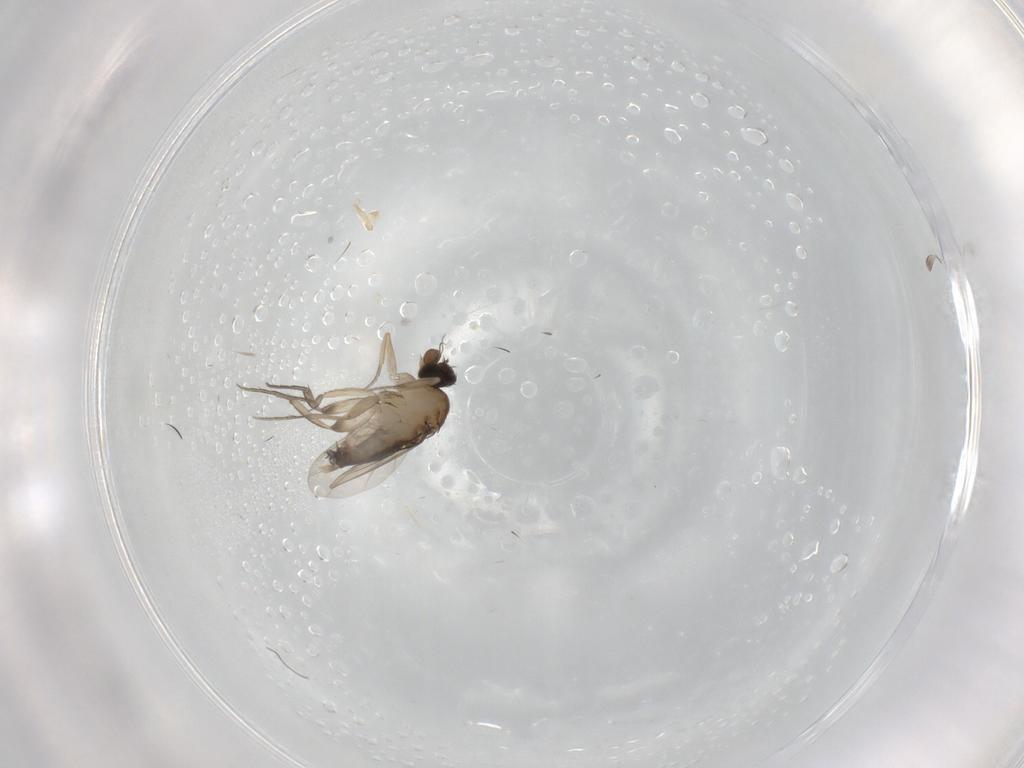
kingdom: Animalia
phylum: Arthropoda
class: Insecta
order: Diptera
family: Phoridae
